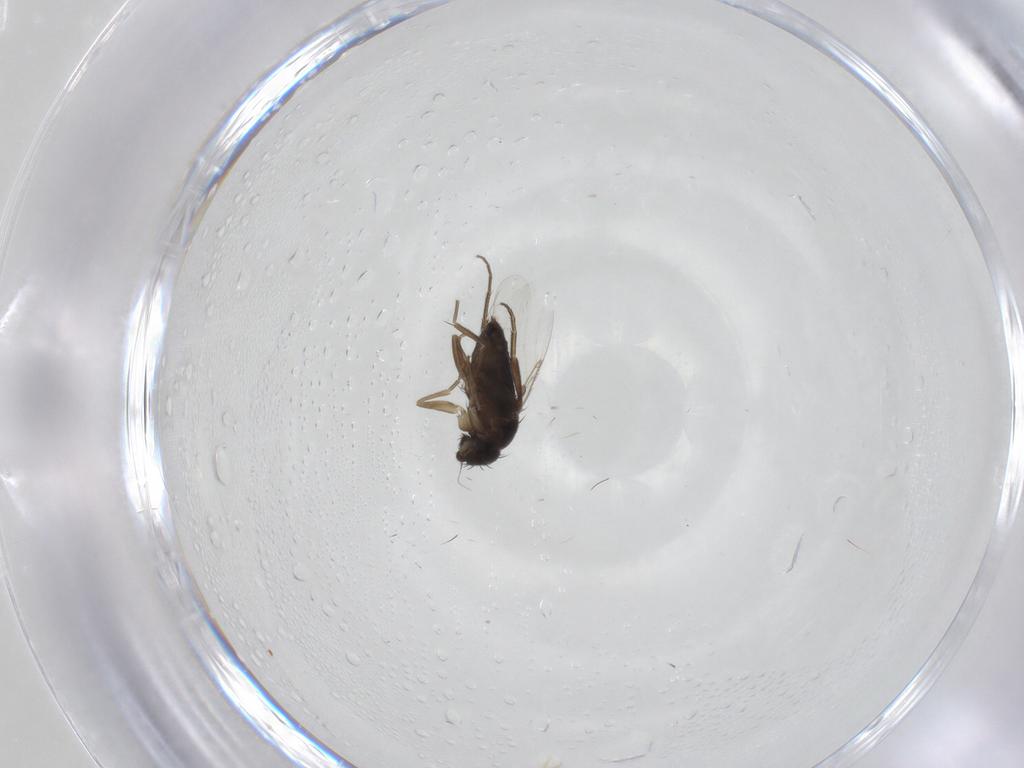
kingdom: Animalia
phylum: Arthropoda
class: Insecta
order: Diptera
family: Phoridae
